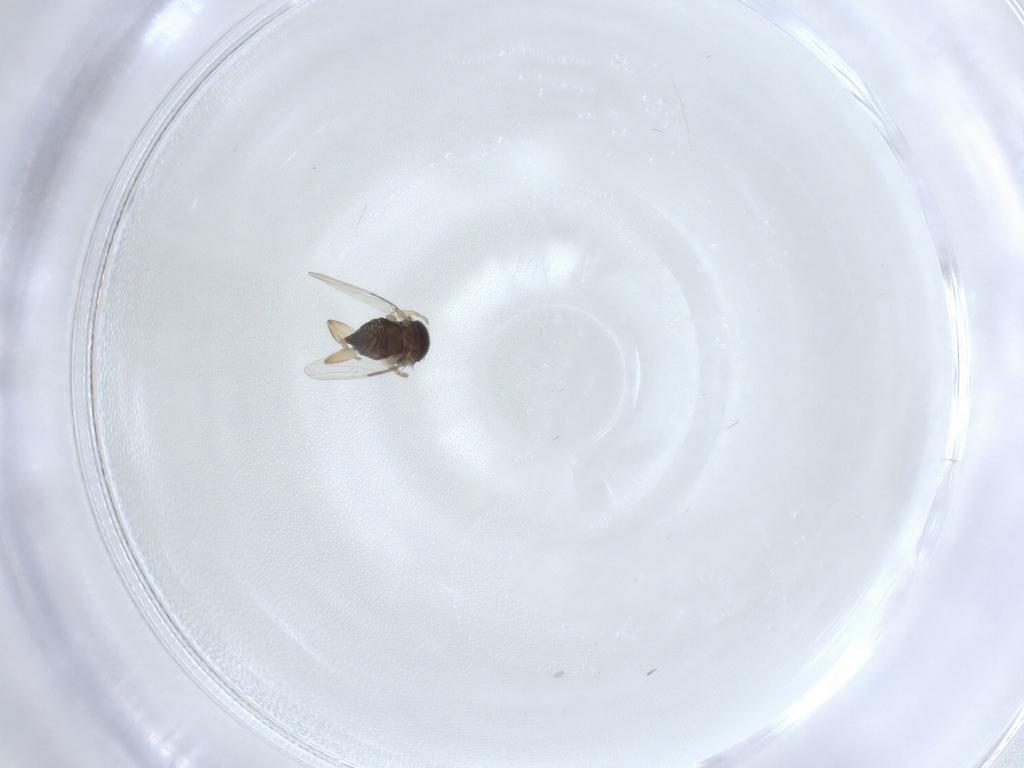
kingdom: Animalia
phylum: Arthropoda
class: Insecta
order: Diptera
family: Phoridae
